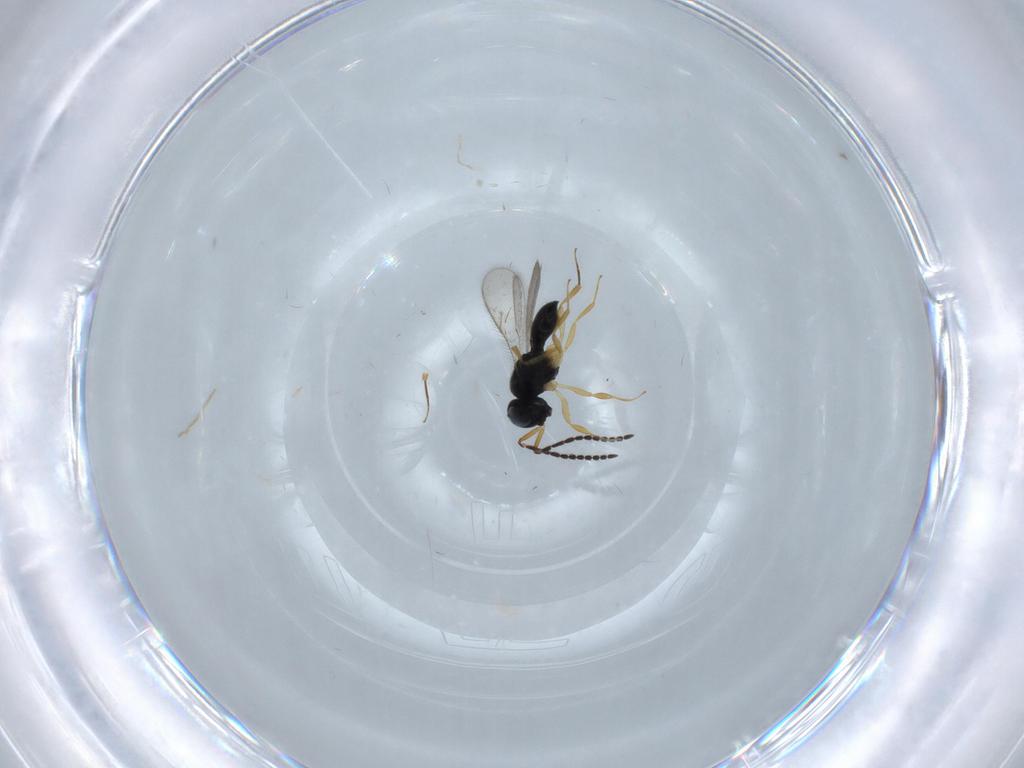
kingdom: Animalia
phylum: Arthropoda
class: Insecta
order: Hymenoptera
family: Scelionidae
